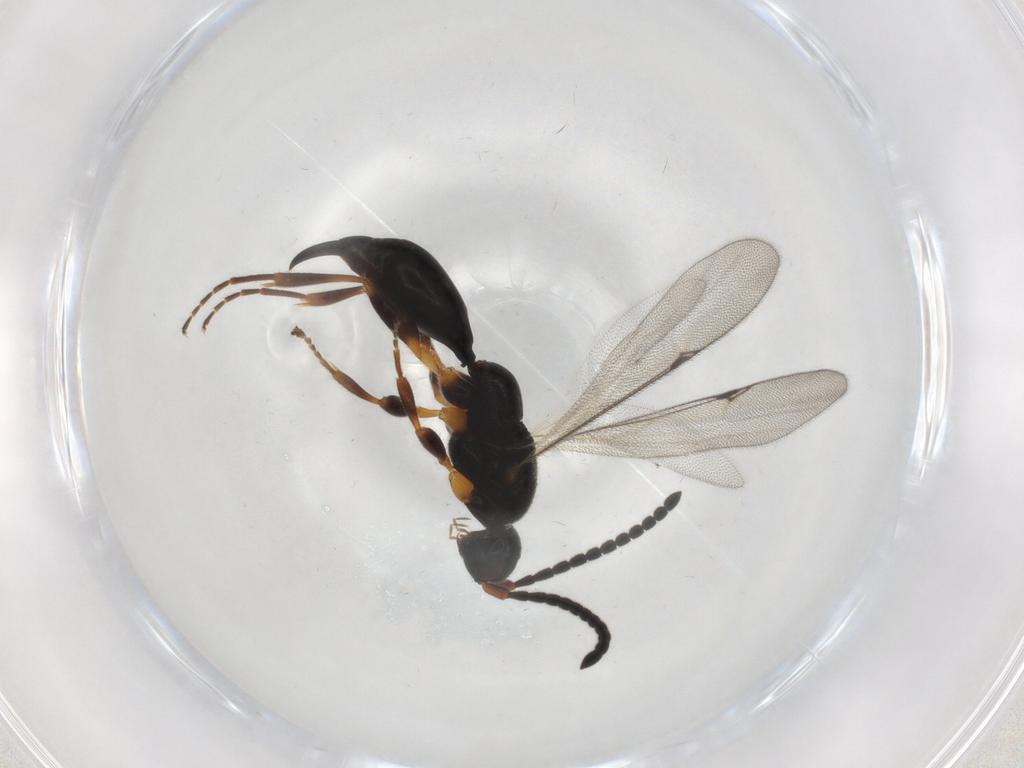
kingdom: Animalia
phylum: Arthropoda
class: Insecta
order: Hymenoptera
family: Proctotrupidae
